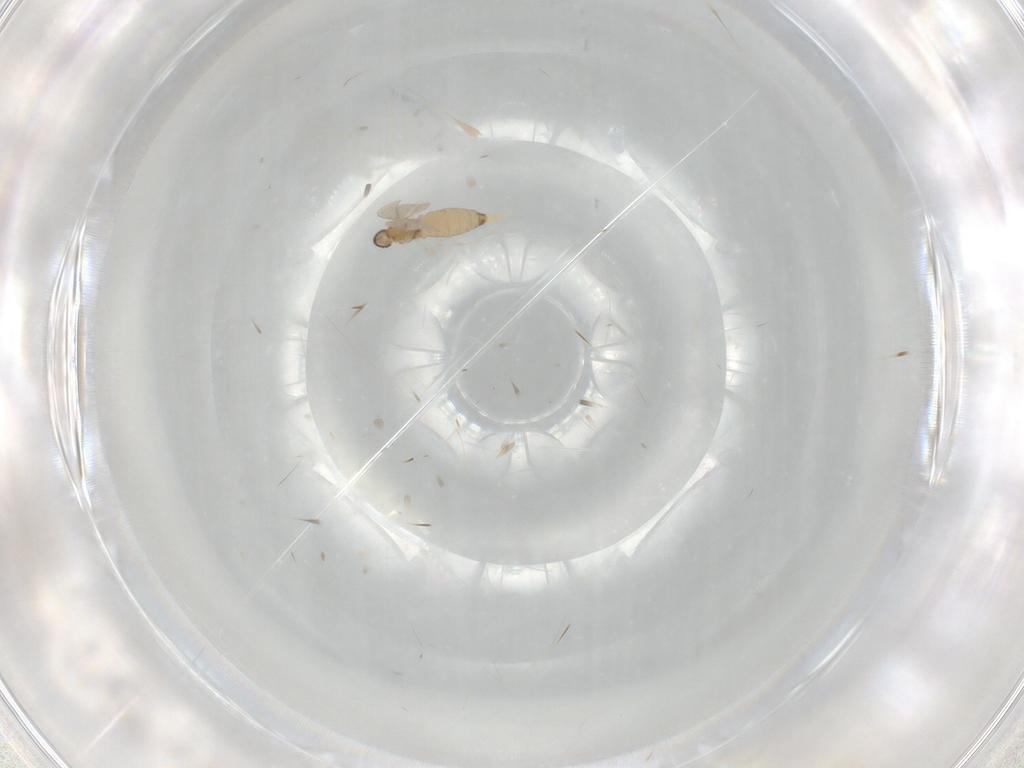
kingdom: Animalia
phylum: Arthropoda
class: Insecta
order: Diptera
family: Cecidomyiidae
